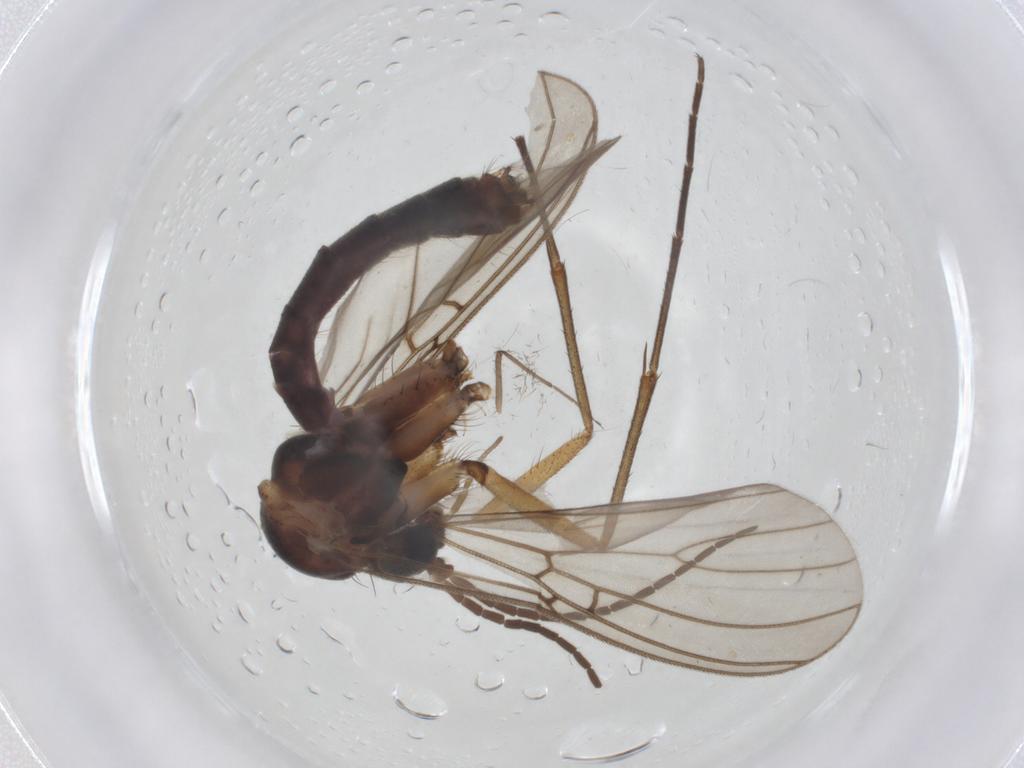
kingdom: Animalia
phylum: Arthropoda
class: Insecta
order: Diptera
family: Mycetophilidae
